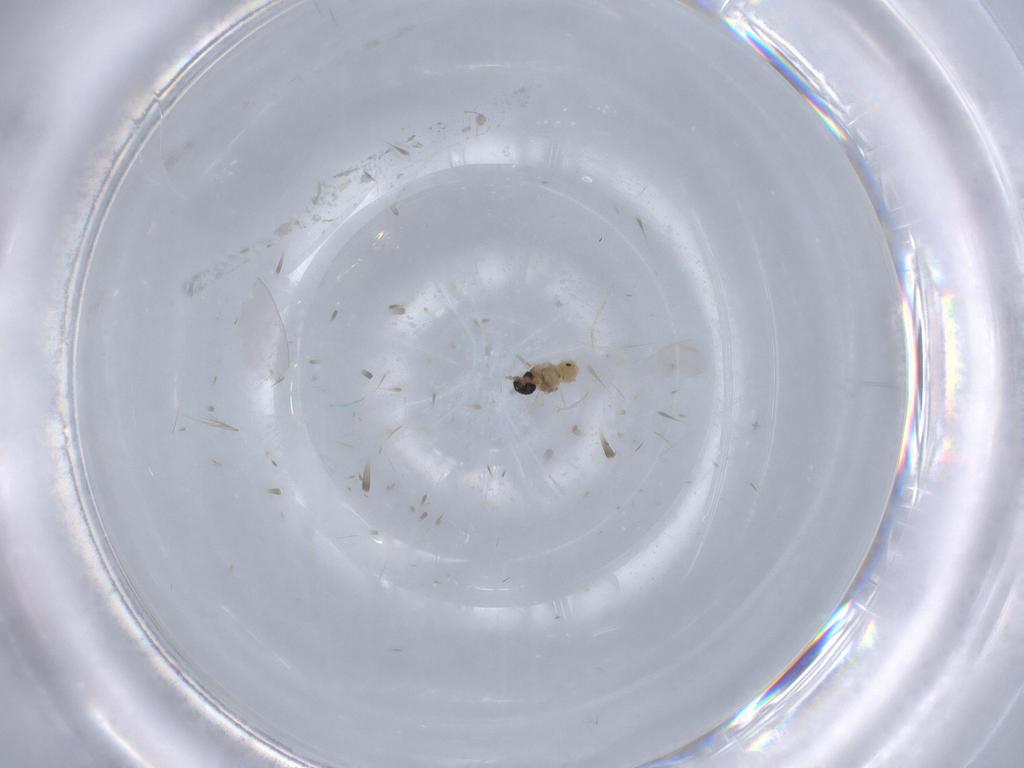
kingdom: Animalia
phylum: Arthropoda
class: Insecta
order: Diptera
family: Cecidomyiidae
